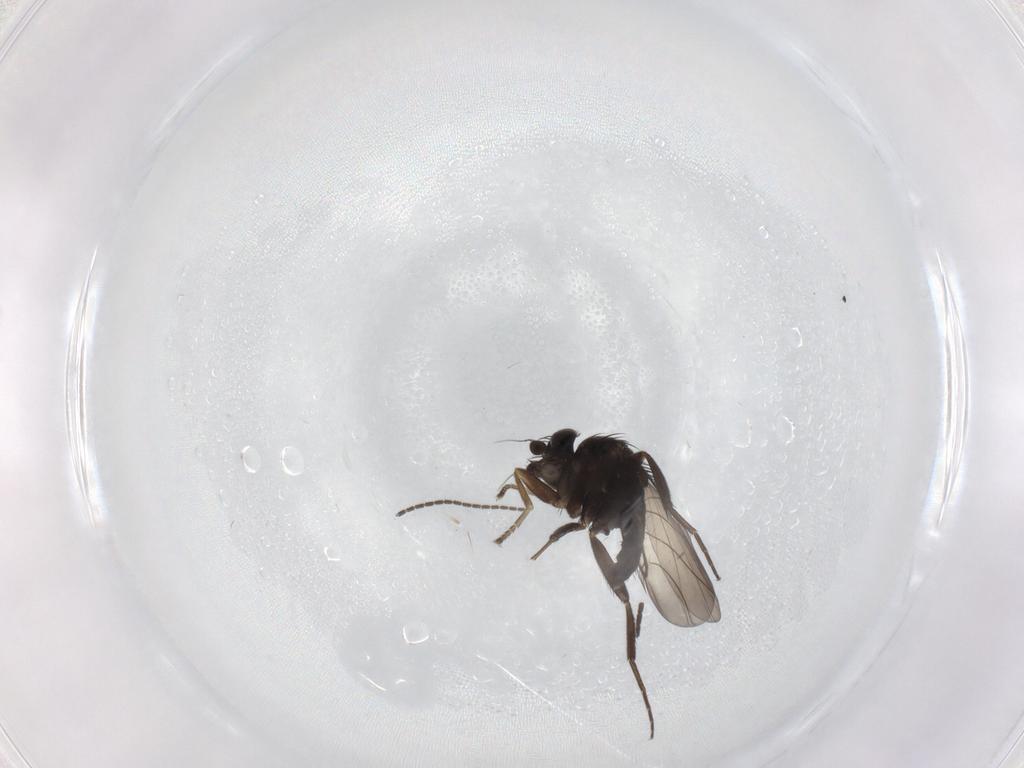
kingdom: Animalia
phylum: Arthropoda
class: Insecta
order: Diptera
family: Phoridae
